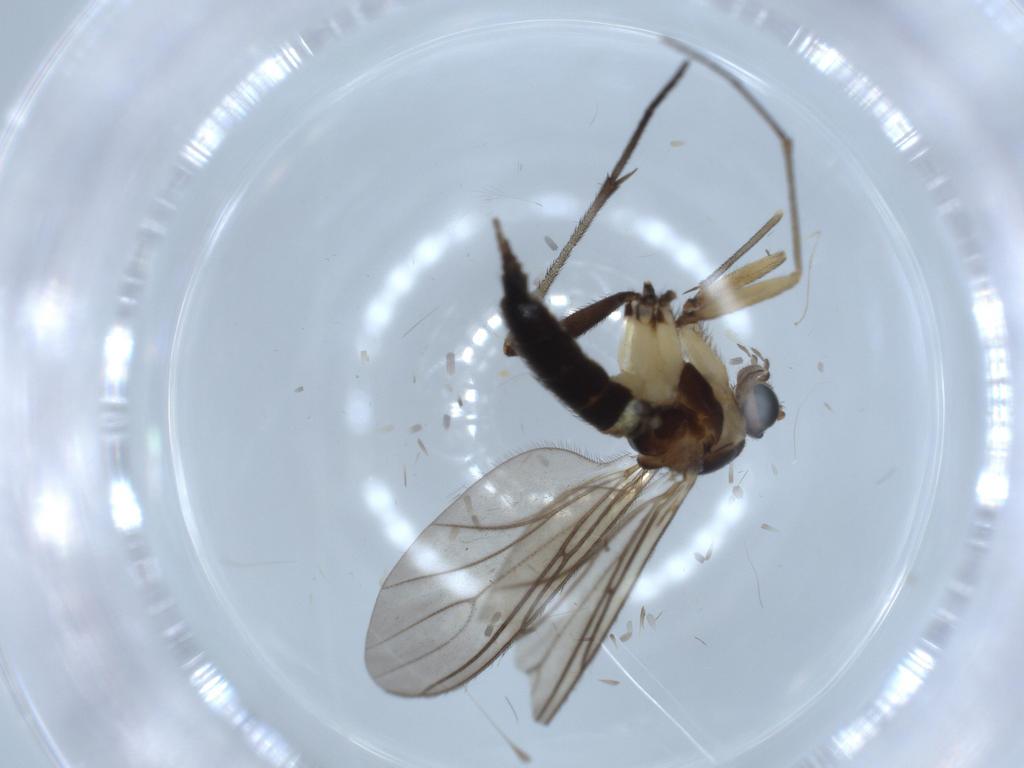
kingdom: Animalia
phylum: Arthropoda
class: Insecta
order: Diptera
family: Sciaridae
